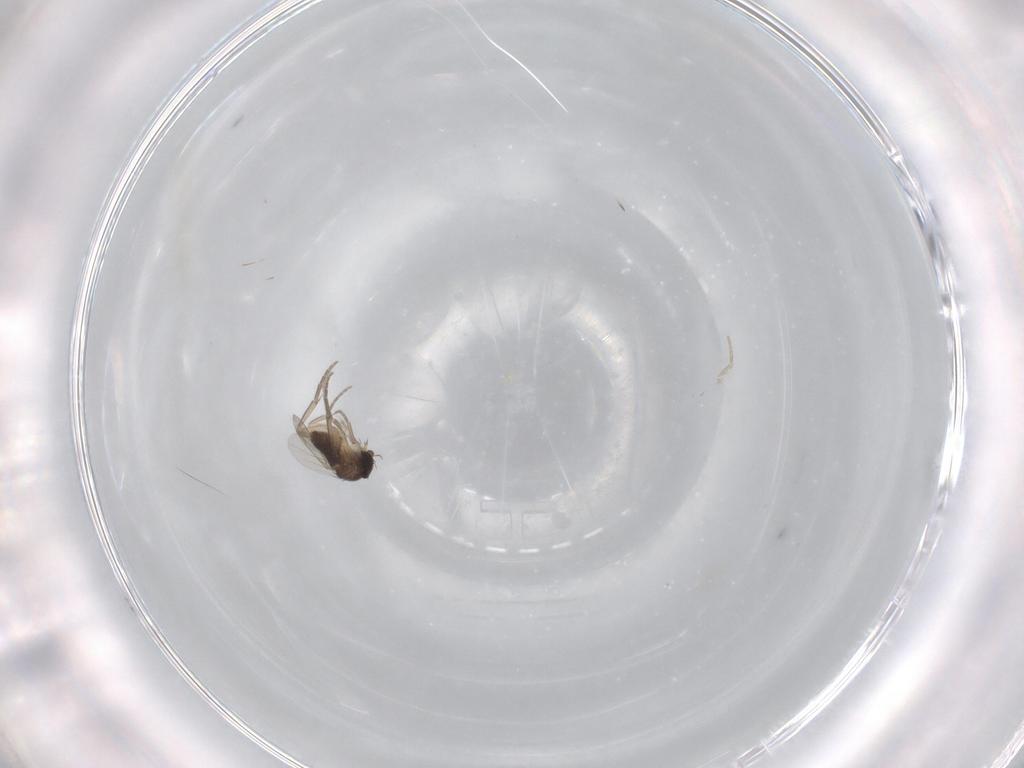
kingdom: Animalia
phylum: Arthropoda
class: Insecta
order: Diptera
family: Phoridae
